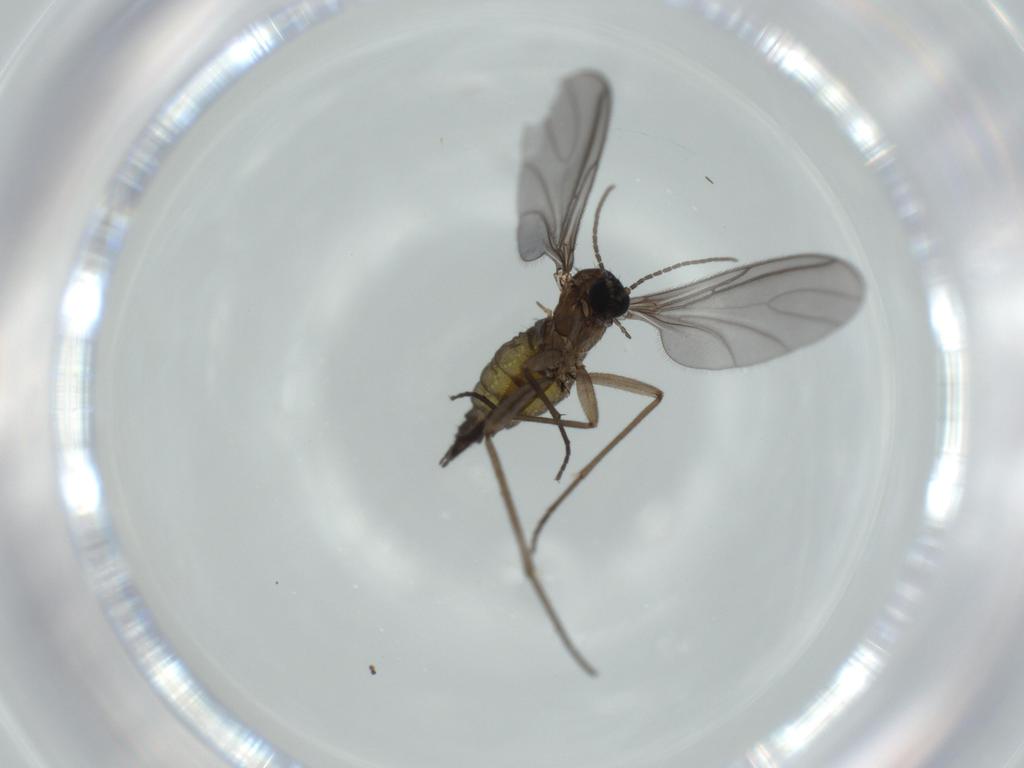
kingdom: Animalia
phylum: Arthropoda
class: Insecta
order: Diptera
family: Sciaridae
